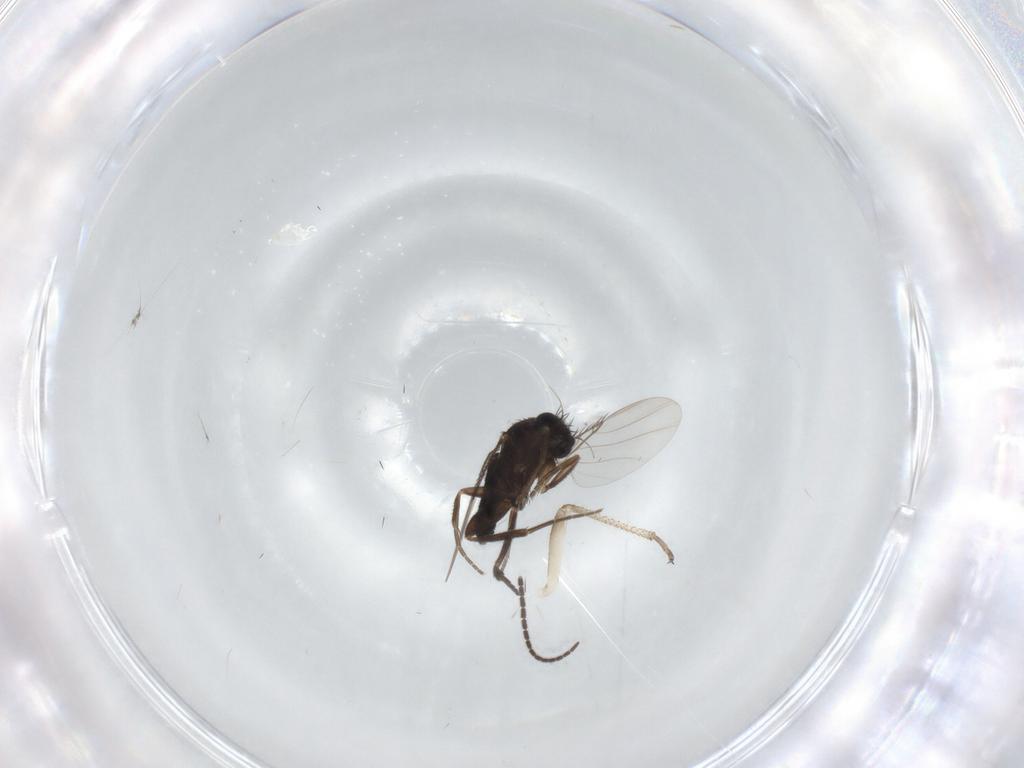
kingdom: Animalia
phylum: Arthropoda
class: Insecta
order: Diptera
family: Phoridae
